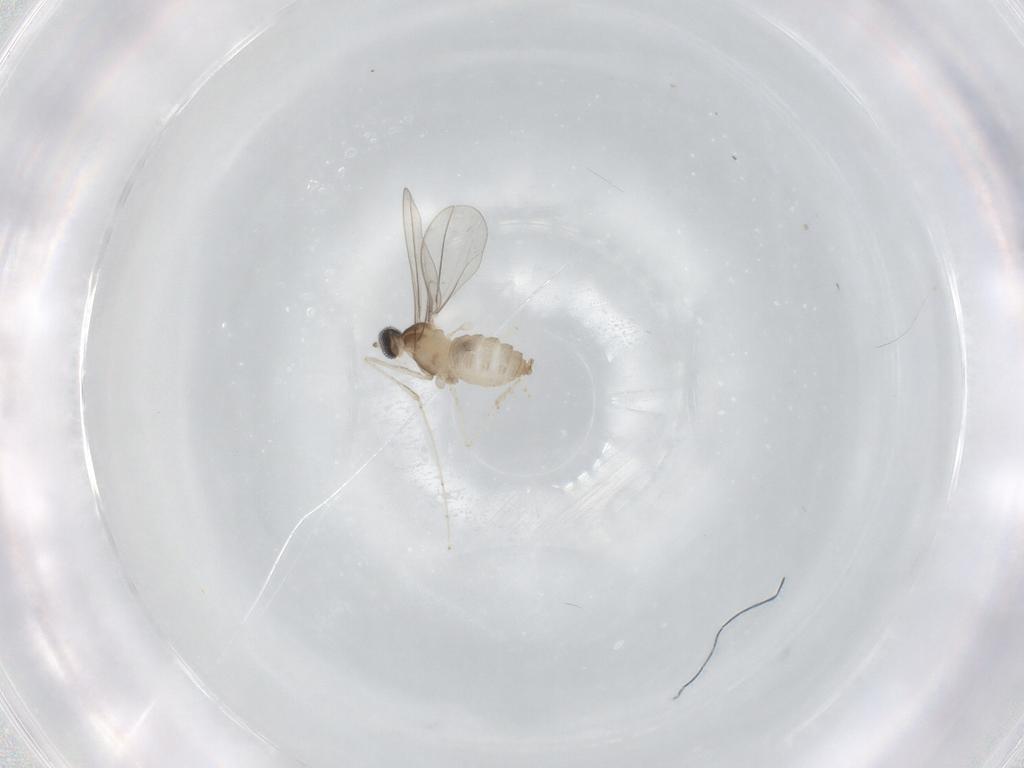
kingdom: Animalia
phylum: Arthropoda
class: Insecta
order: Diptera
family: Cecidomyiidae
